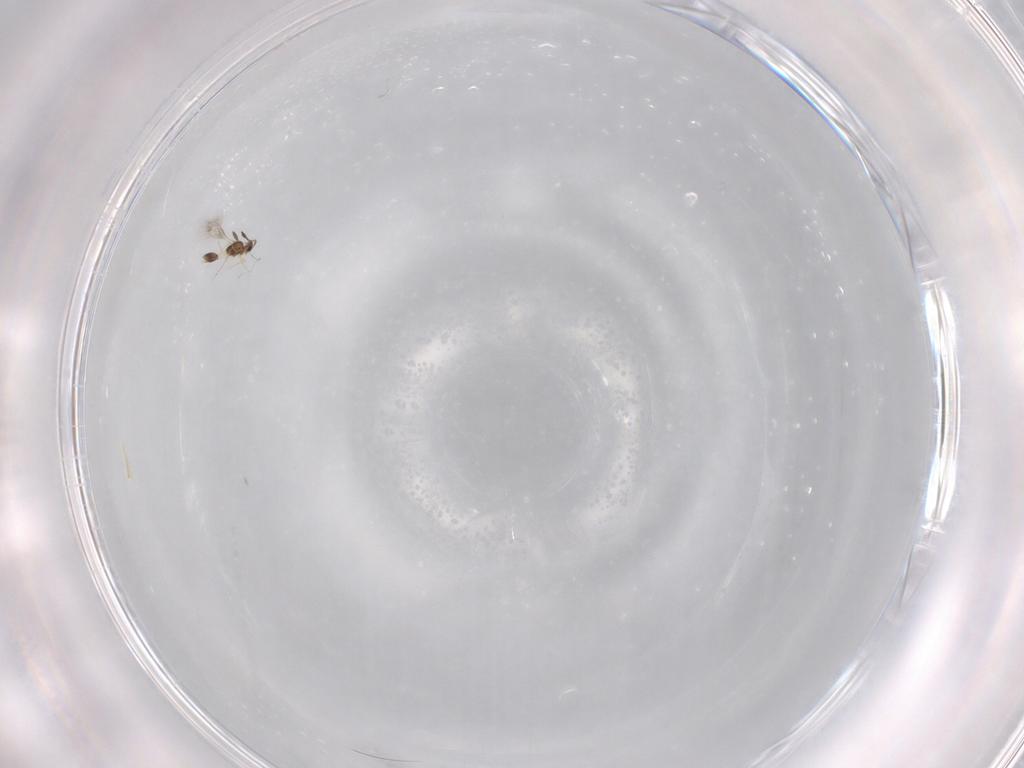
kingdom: Animalia
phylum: Arthropoda
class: Insecta
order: Hymenoptera
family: Mymarommatidae
